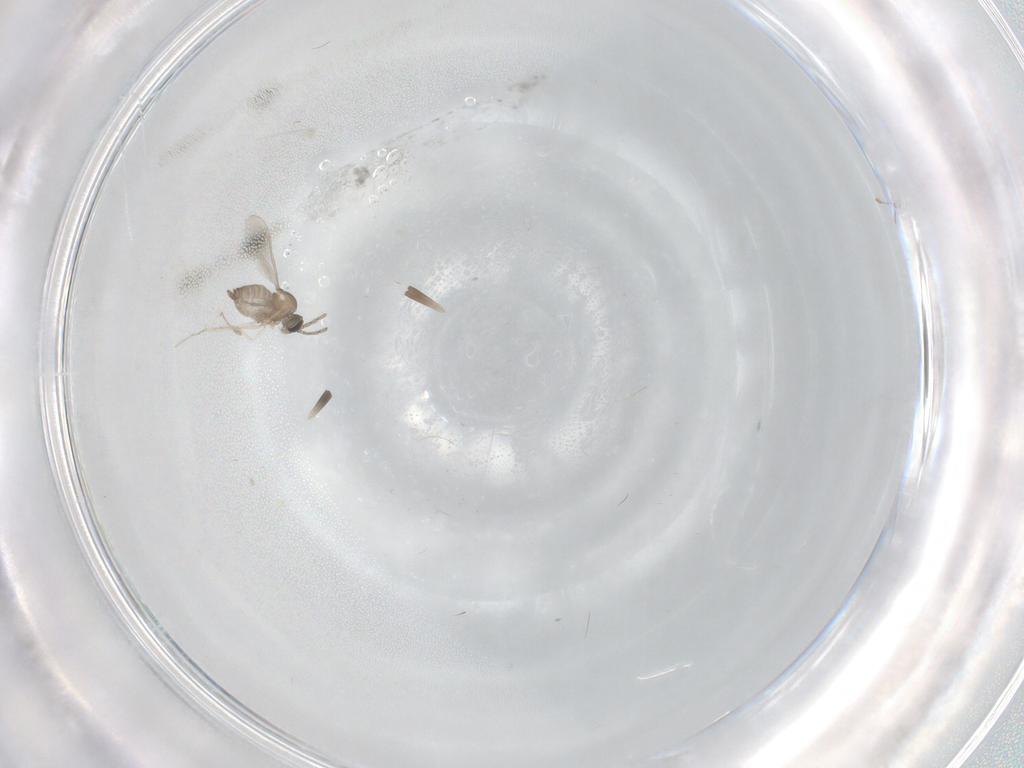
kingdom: Animalia
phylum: Arthropoda
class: Insecta
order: Diptera
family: Cecidomyiidae
